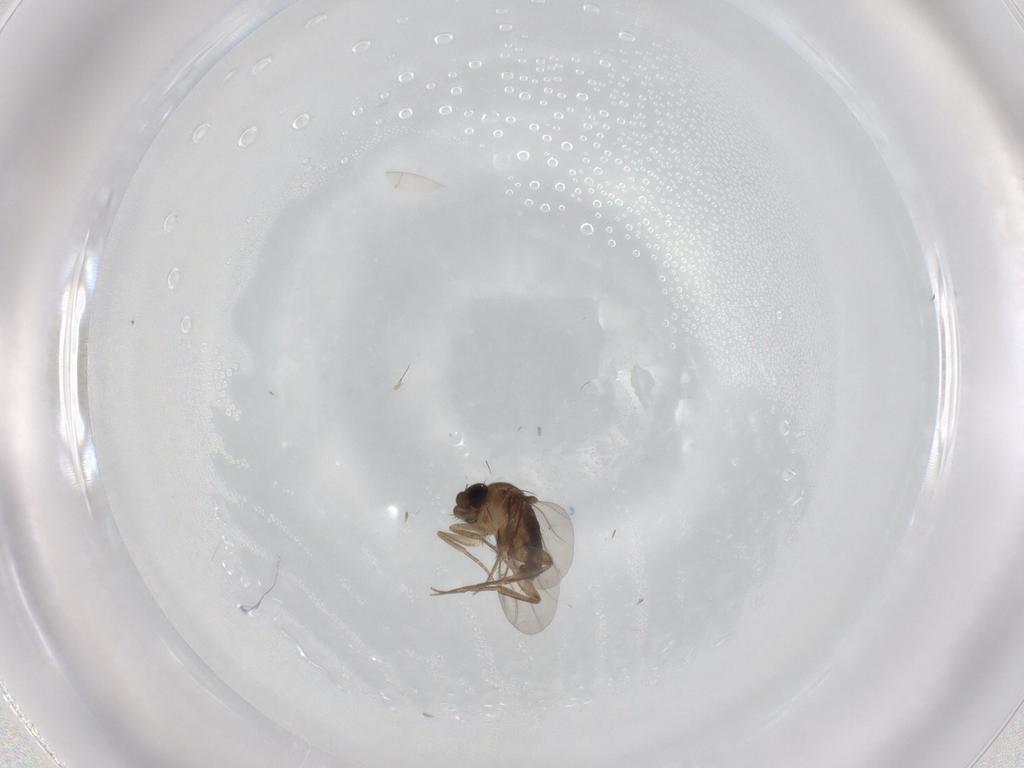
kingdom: Animalia
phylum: Arthropoda
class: Insecta
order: Diptera
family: Phoridae
